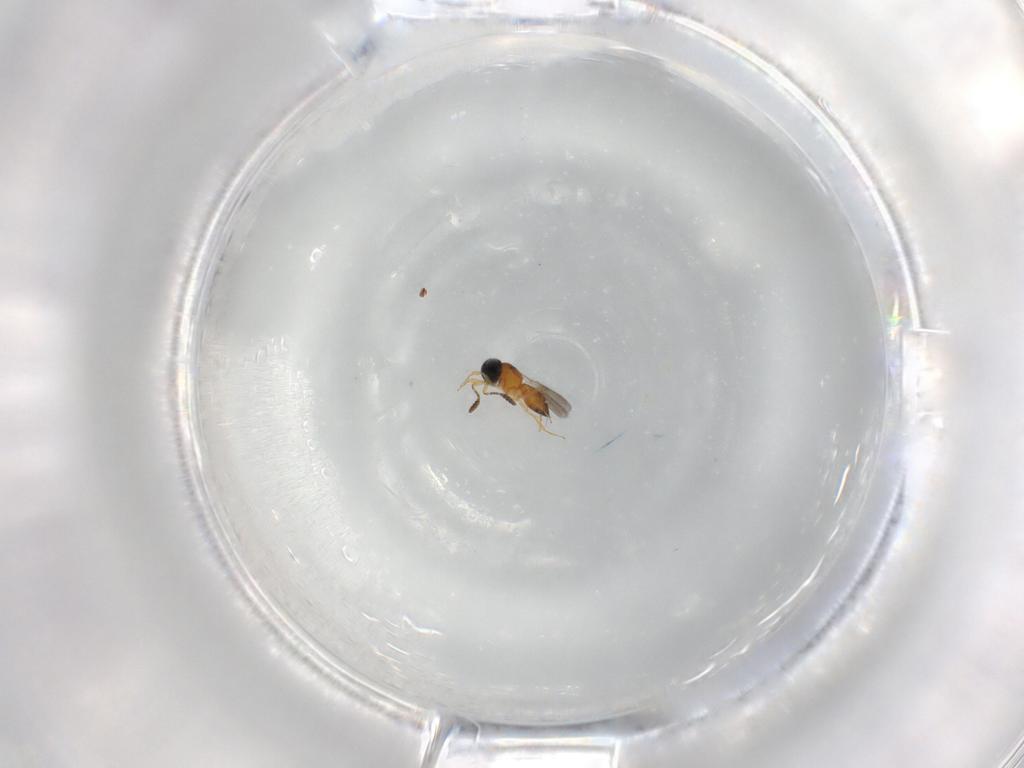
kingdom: Animalia
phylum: Arthropoda
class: Insecta
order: Hymenoptera
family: Scelionidae
